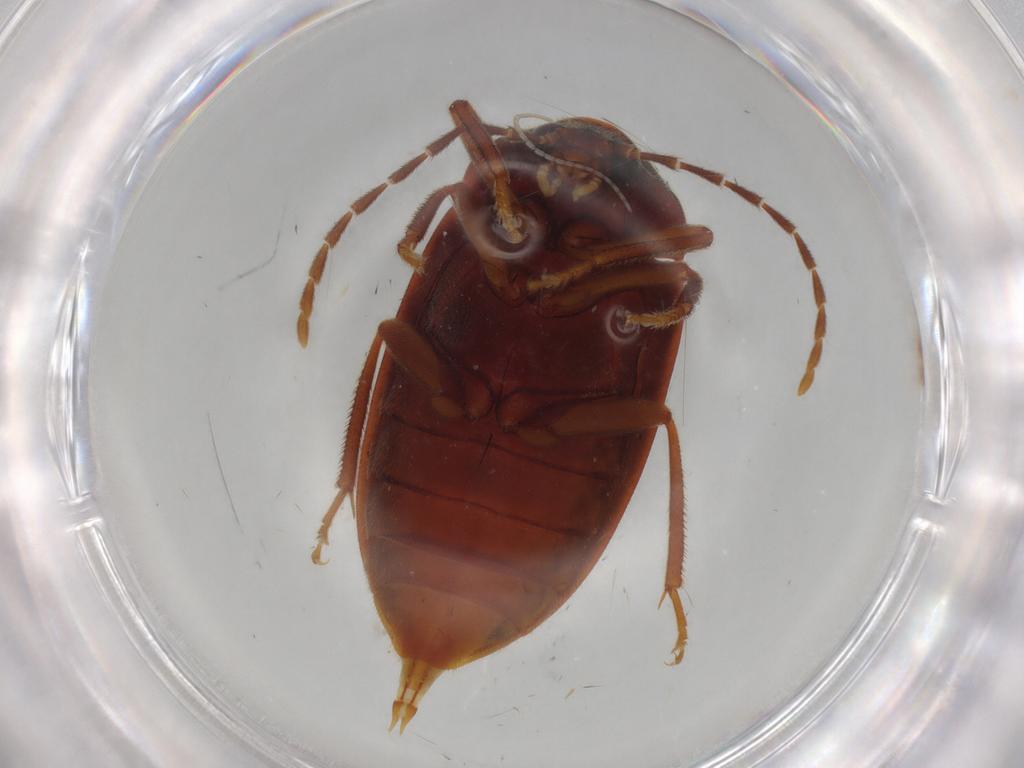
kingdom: Animalia
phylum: Arthropoda
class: Insecta
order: Coleoptera
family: Ptilodactylidae
